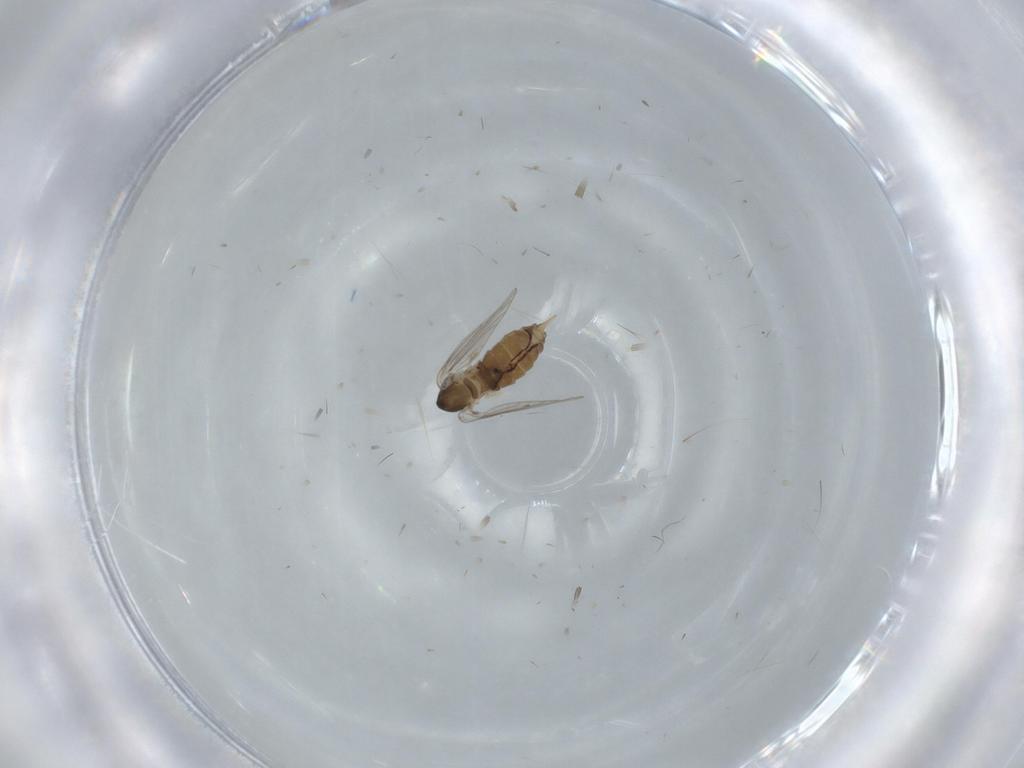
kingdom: Animalia
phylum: Arthropoda
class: Insecta
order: Diptera
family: Psychodidae
